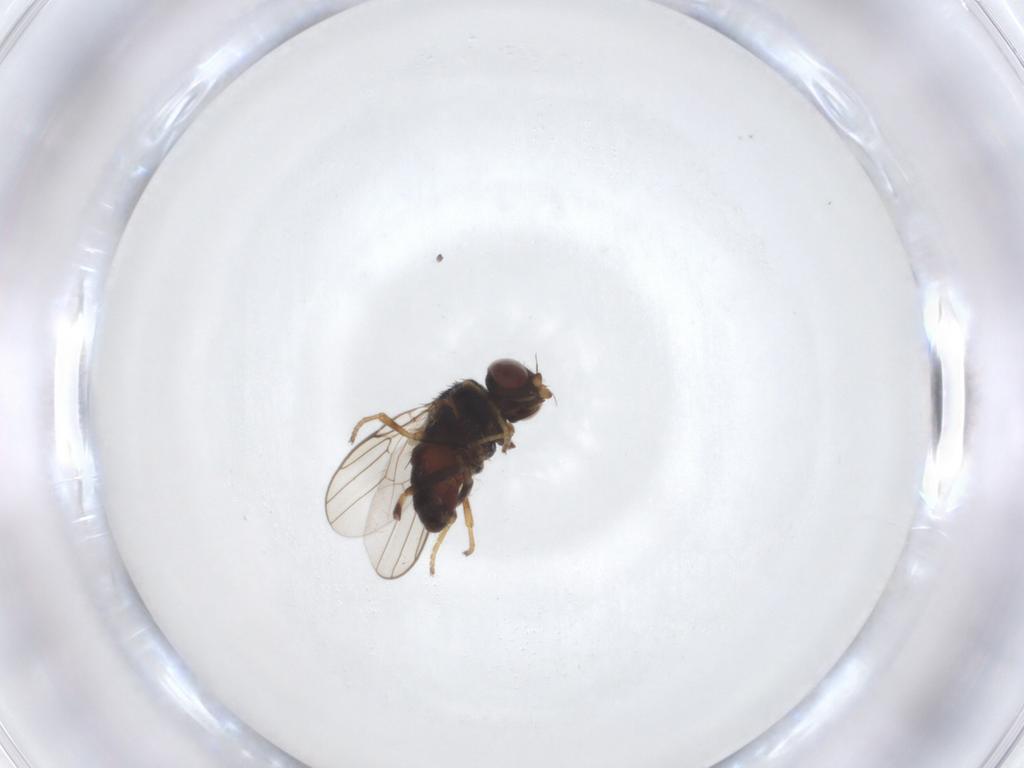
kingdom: Animalia
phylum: Arthropoda
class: Insecta
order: Diptera
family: Chloropidae
